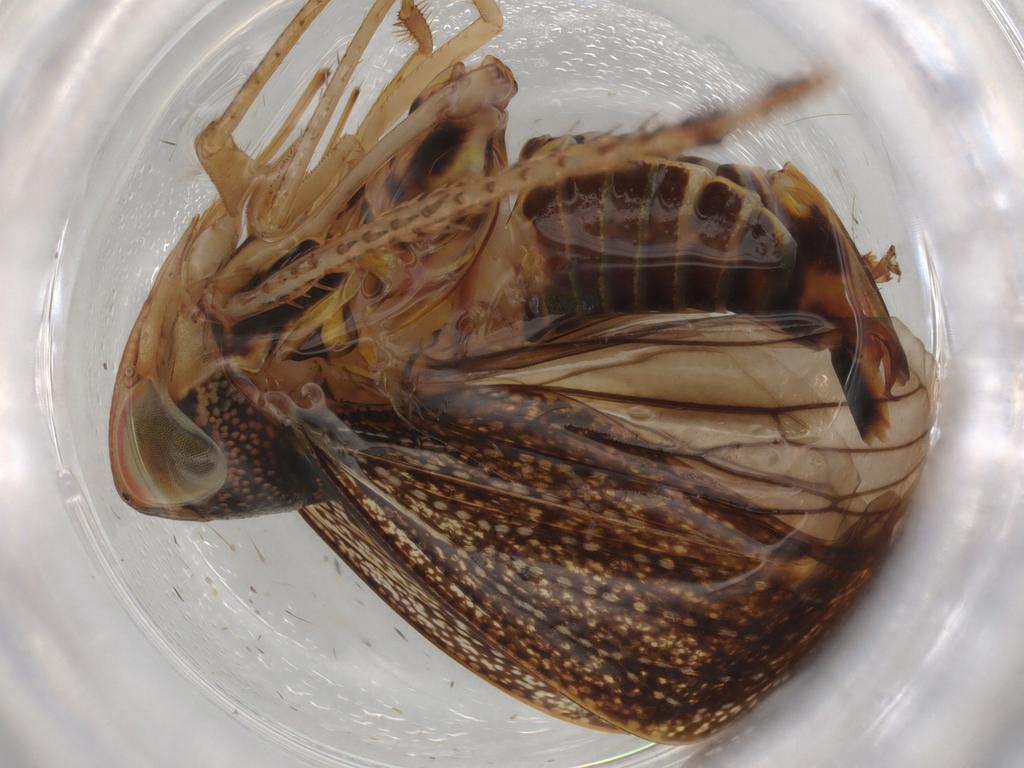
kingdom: Animalia
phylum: Arthropoda
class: Insecta
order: Hemiptera
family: Cicadellidae
